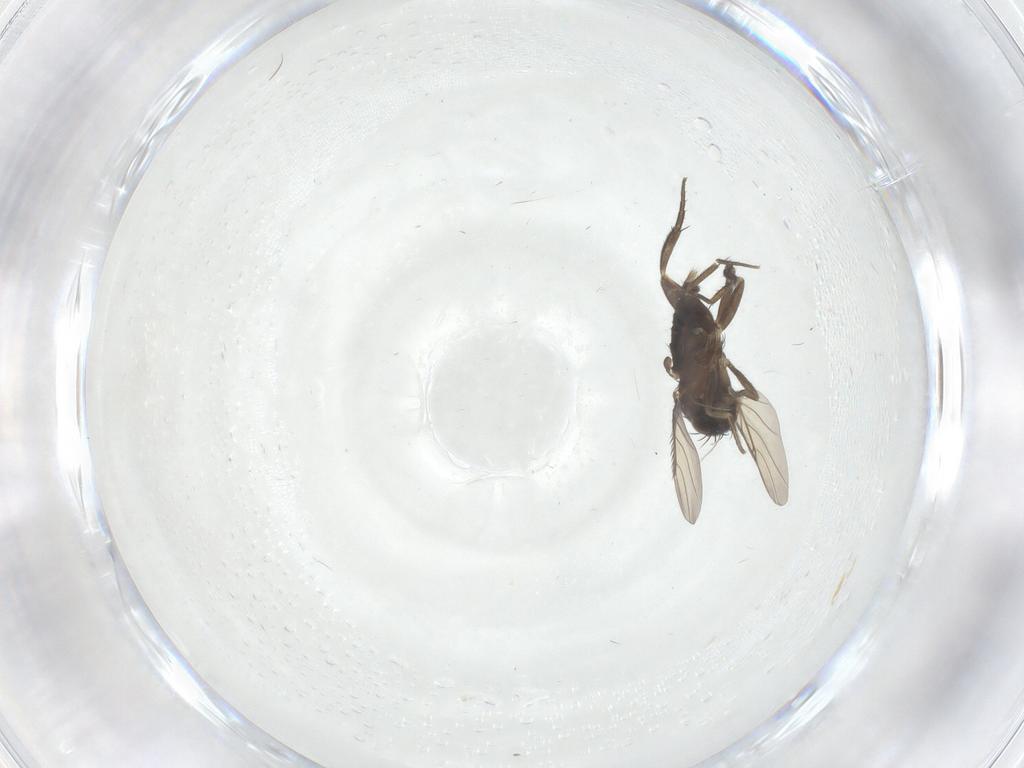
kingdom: Animalia
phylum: Arthropoda
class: Insecta
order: Diptera
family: Phoridae
